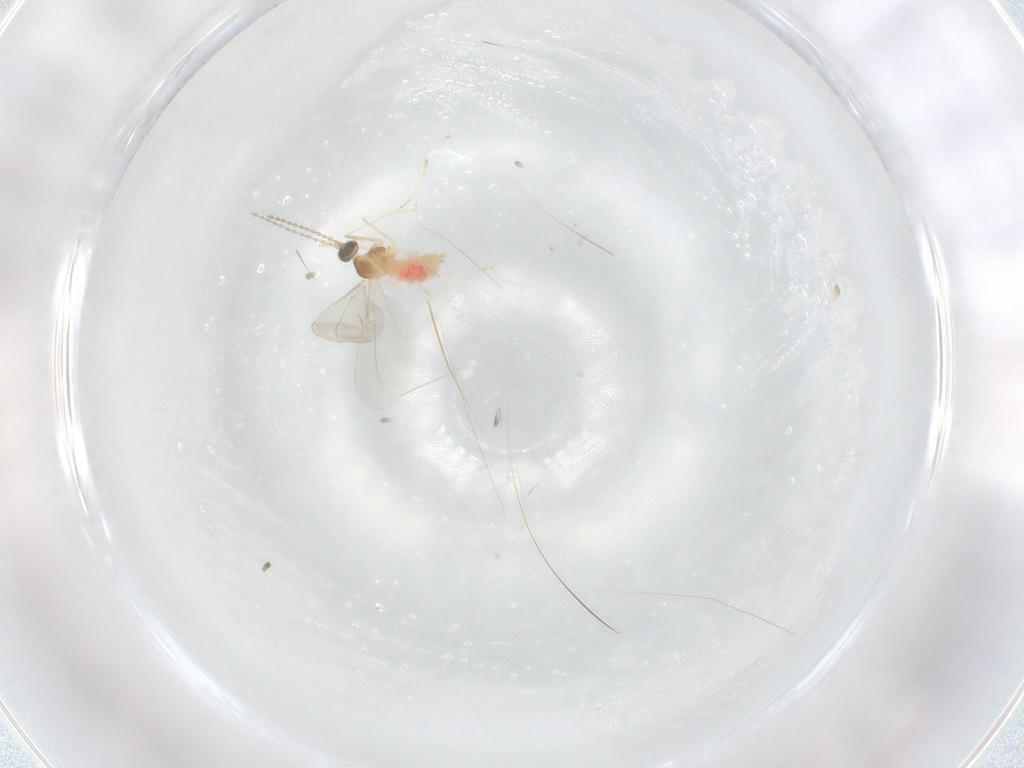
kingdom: Animalia
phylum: Arthropoda
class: Insecta
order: Diptera
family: Cecidomyiidae
